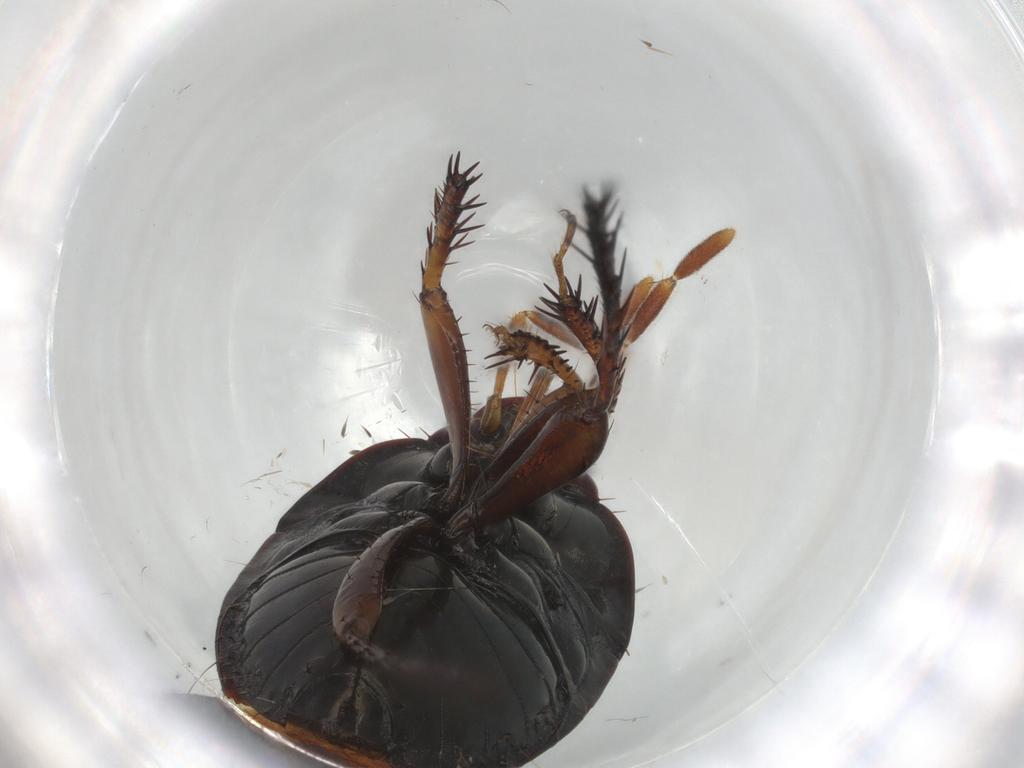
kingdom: Animalia
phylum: Arthropoda
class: Insecta
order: Hemiptera
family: Cydnidae
